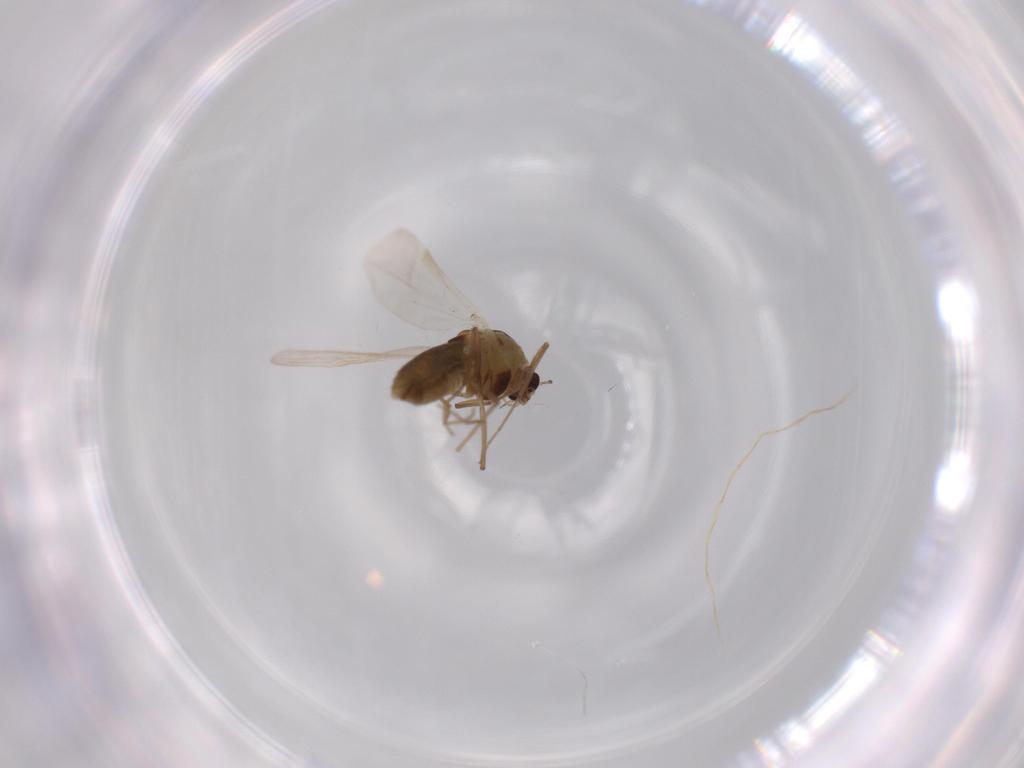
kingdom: Animalia
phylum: Arthropoda
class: Insecta
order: Diptera
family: Chironomidae
